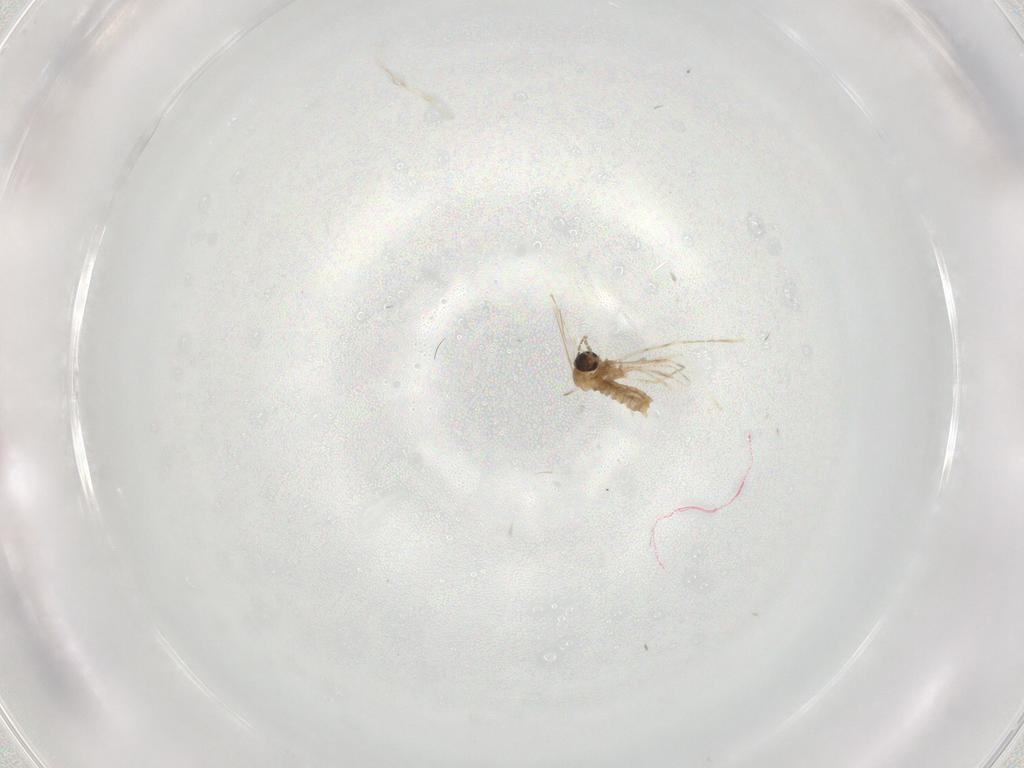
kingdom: Animalia
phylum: Arthropoda
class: Insecta
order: Diptera
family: Cecidomyiidae
